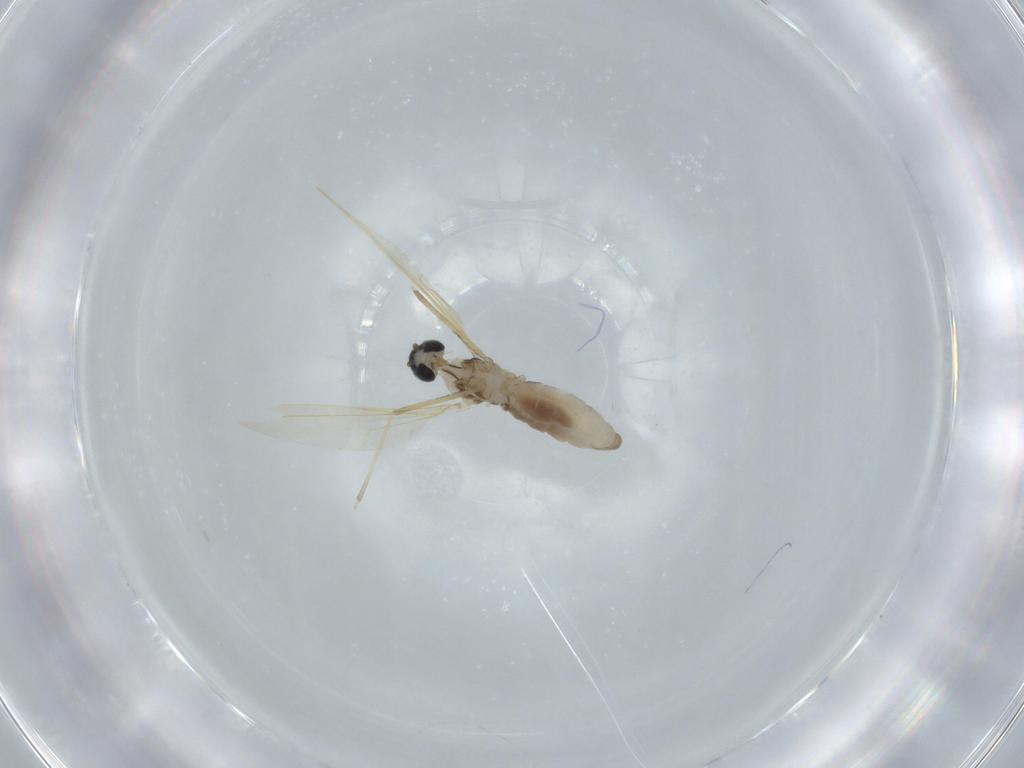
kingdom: Animalia
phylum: Arthropoda
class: Insecta
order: Diptera
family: Cecidomyiidae
